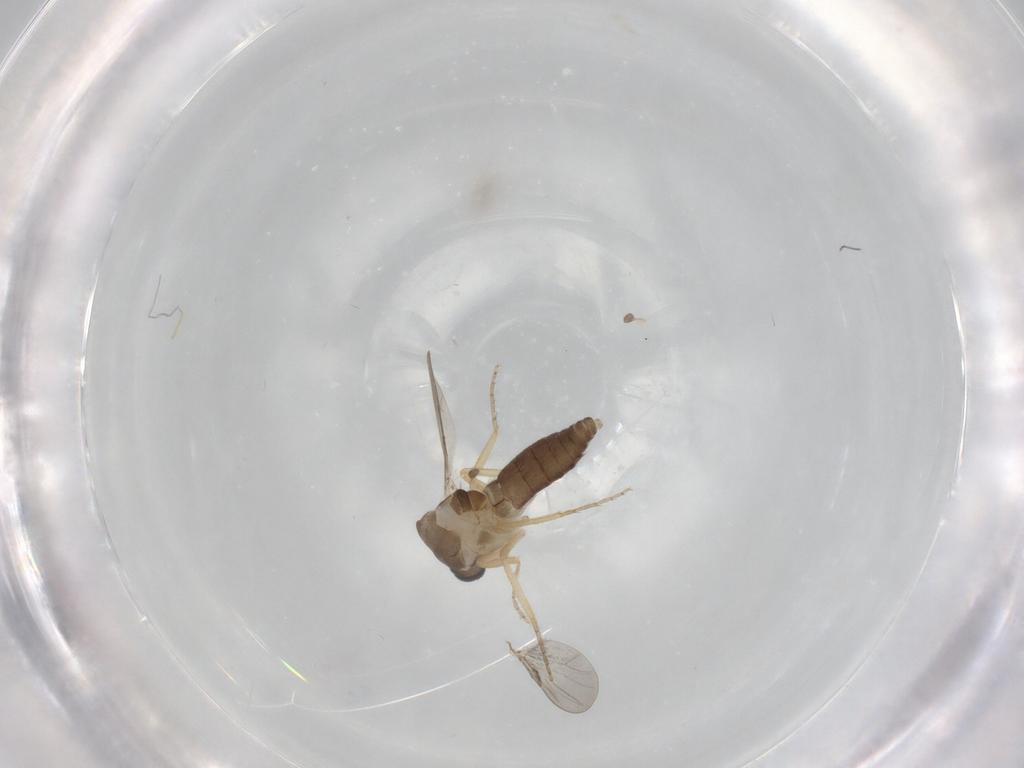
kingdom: Animalia
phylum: Arthropoda
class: Insecta
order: Diptera
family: Ceratopogonidae
